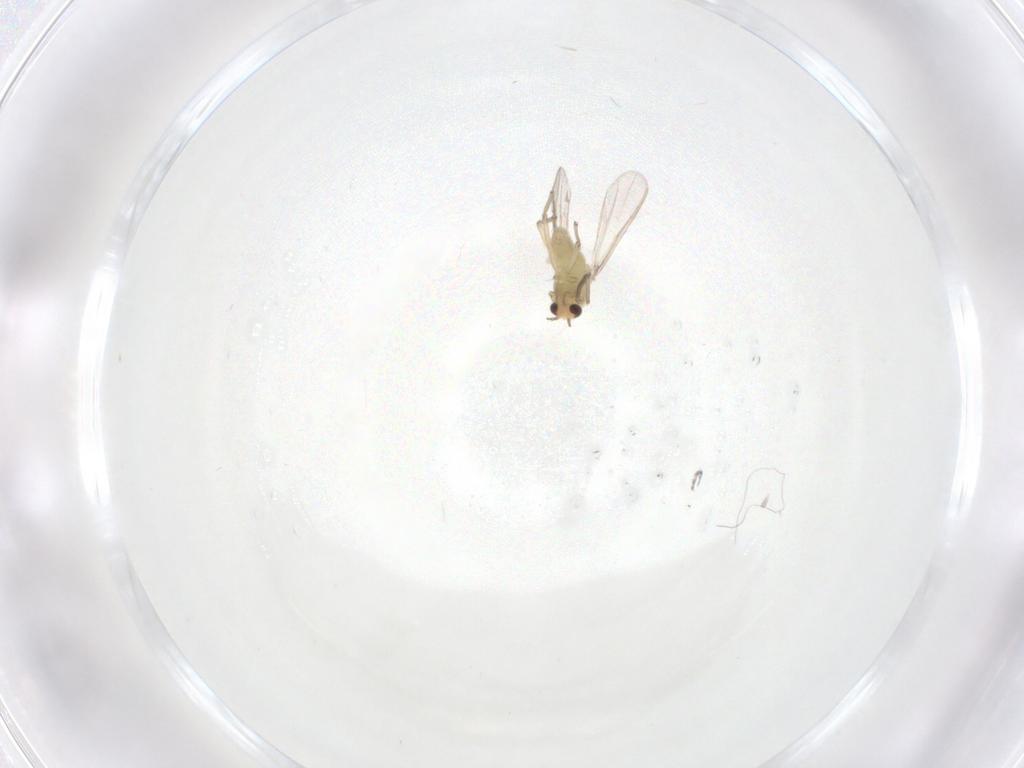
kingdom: Animalia
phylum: Arthropoda
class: Insecta
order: Diptera
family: Chironomidae
